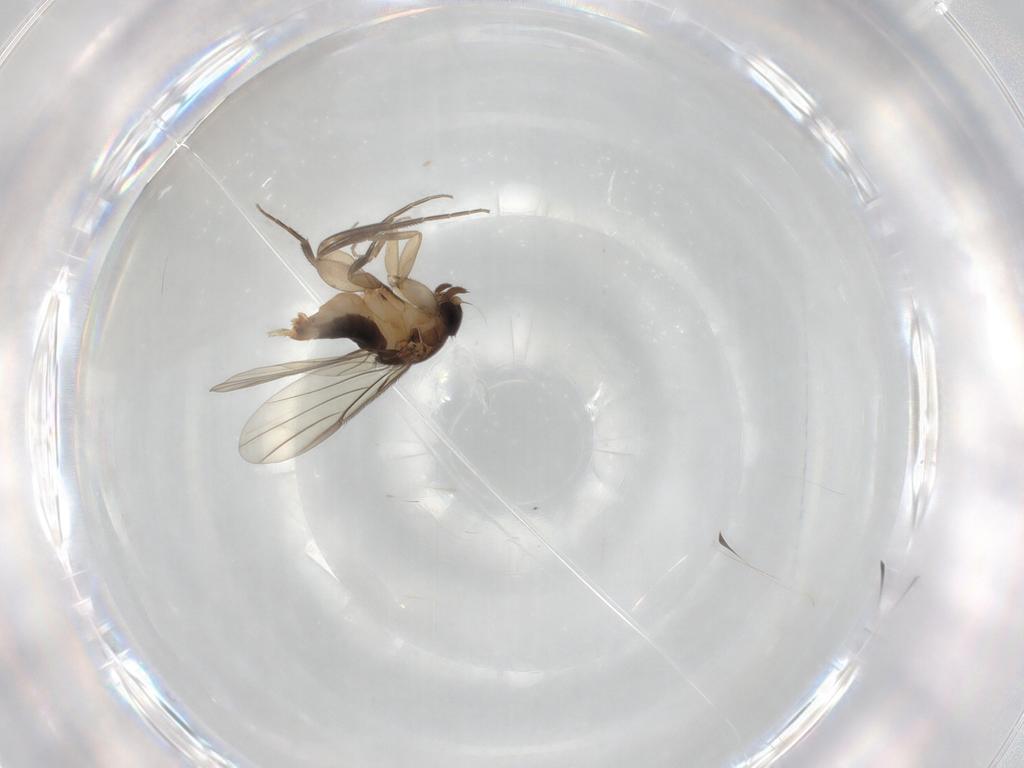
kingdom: Animalia
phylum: Arthropoda
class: Insecta
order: Diptera
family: Phoridae
